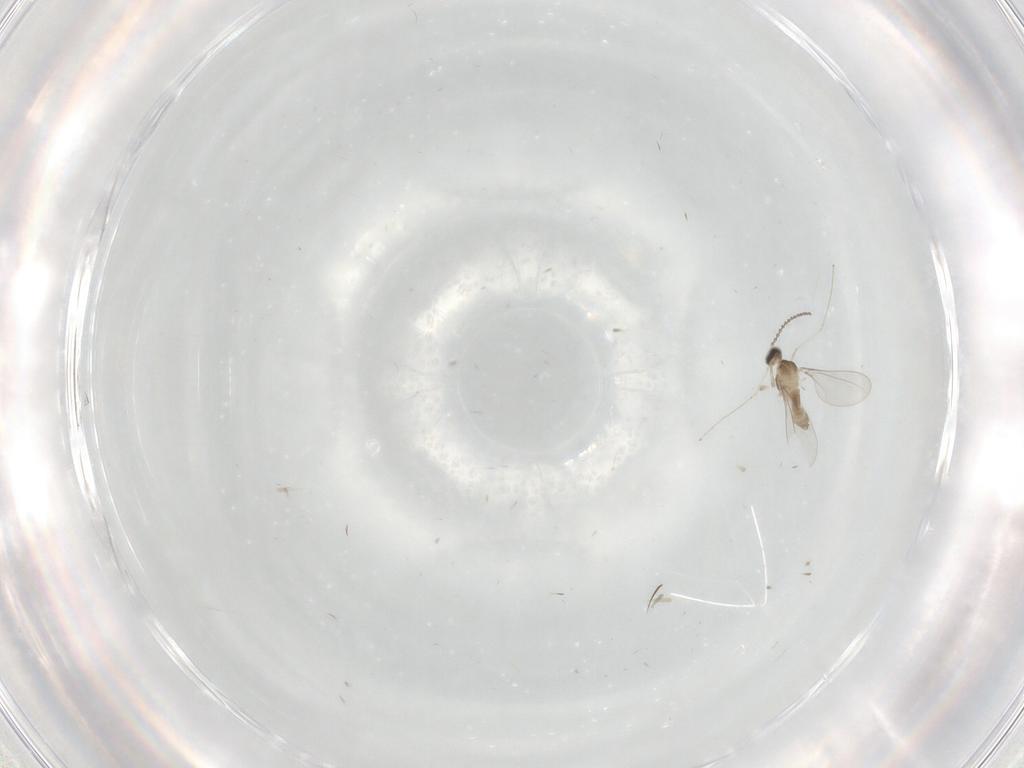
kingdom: Animalia
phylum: Arthropoda
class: Insecta
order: Diptera
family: Cecidomyiidae
